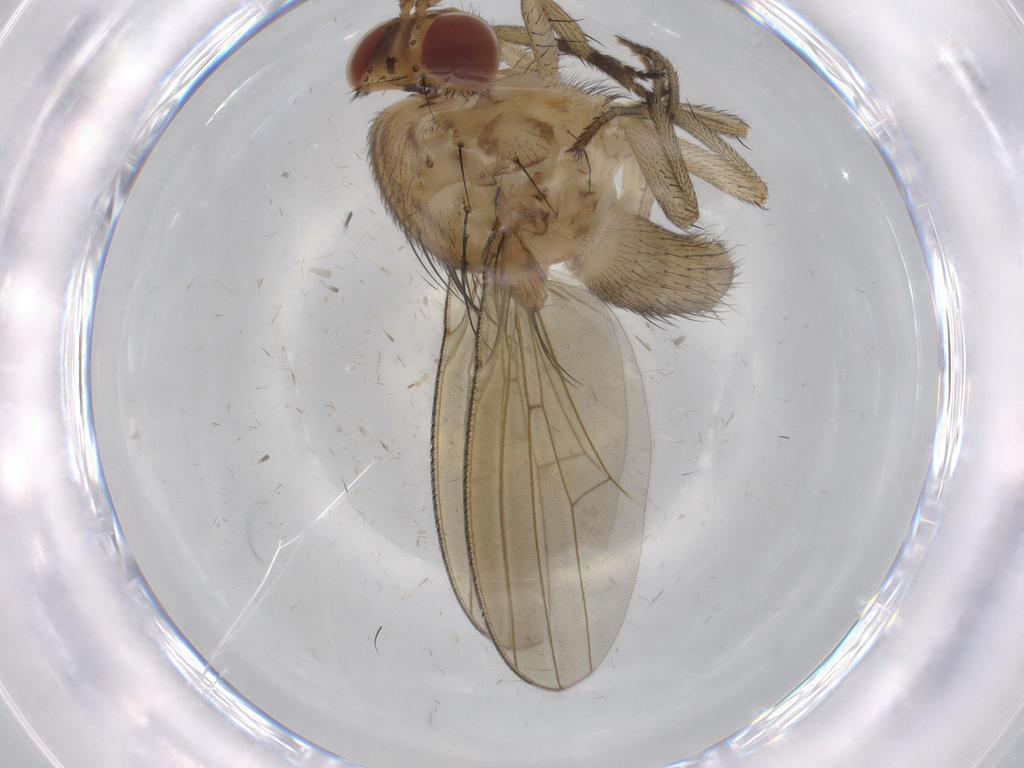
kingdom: Animalia
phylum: Arthropoda
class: Insecta
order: Diptera
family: Limoniidae
